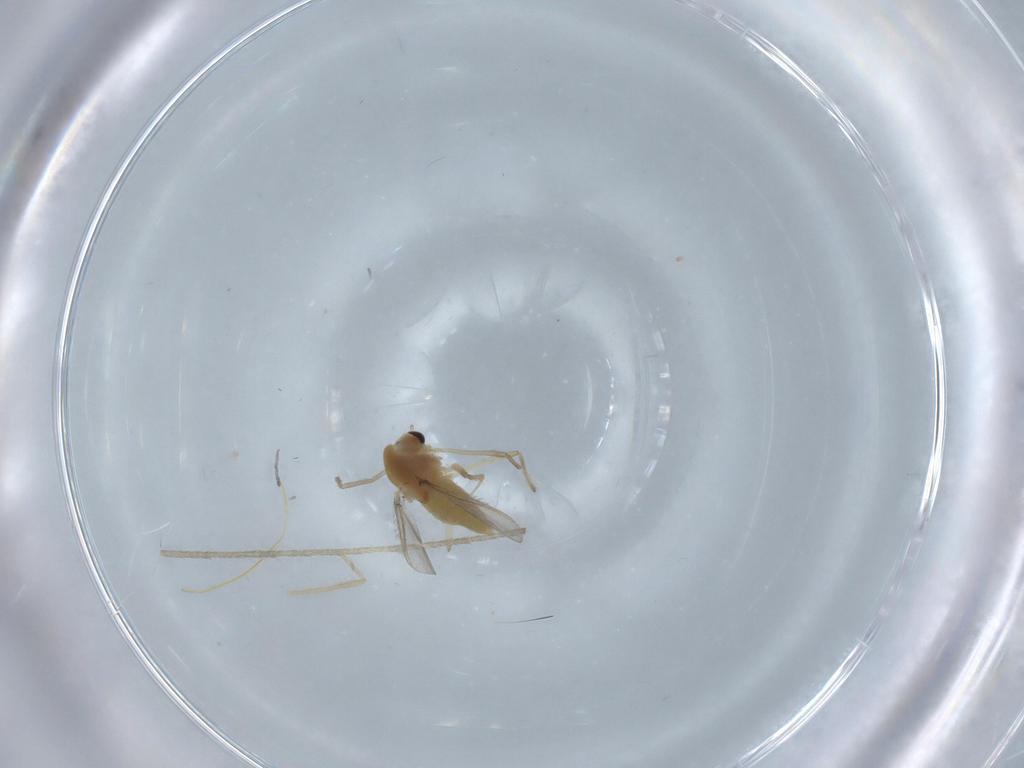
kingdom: Animalia
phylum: Arthropoda
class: Insecta
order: Diptera
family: Chironomidae
